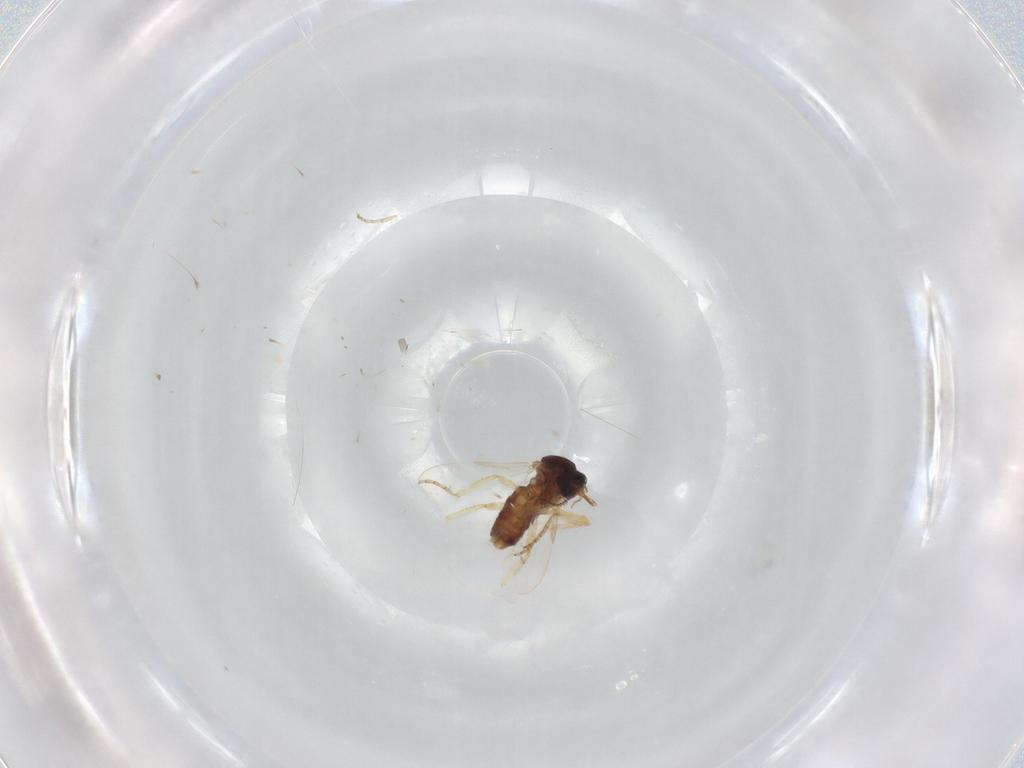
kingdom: Animalia
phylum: Arthropoda
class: Insecta
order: Diptera
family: Ceratopogonidae
